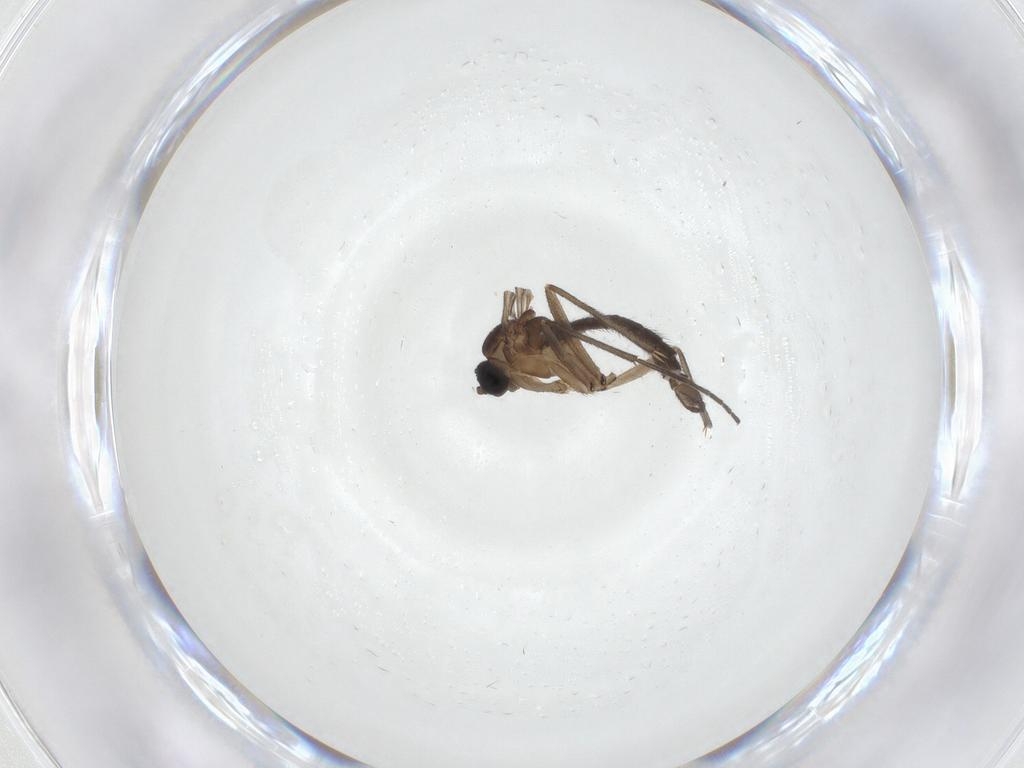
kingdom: Animalia
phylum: Arthropoda
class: Insecta
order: Diptera
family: Sciaridae
